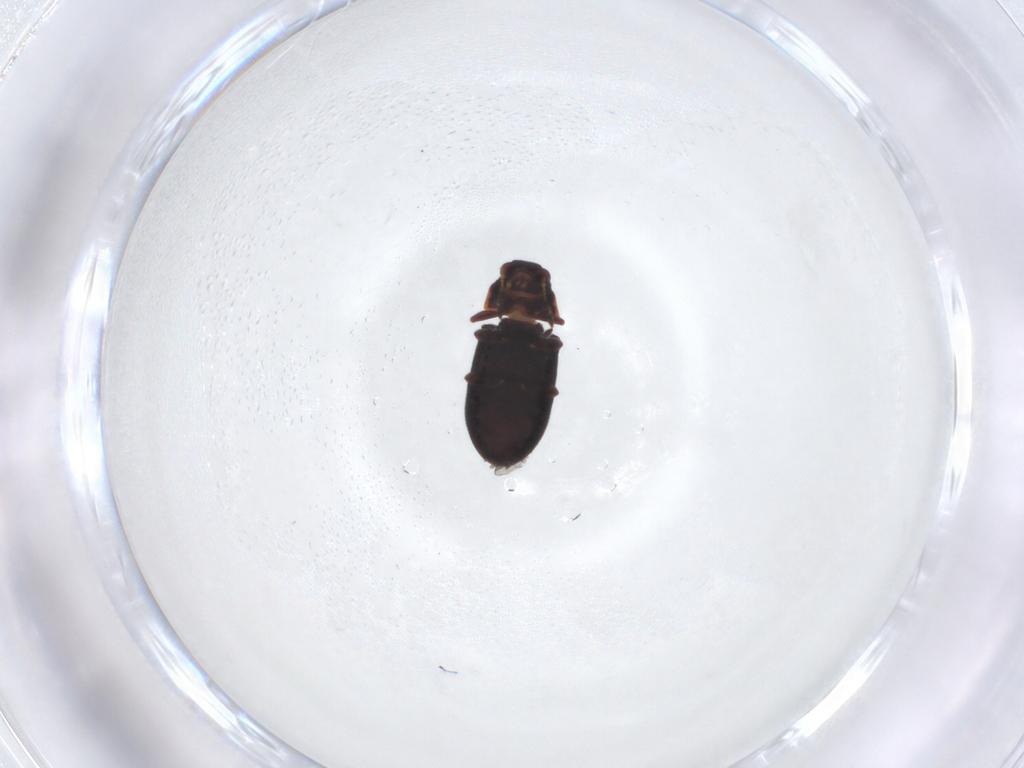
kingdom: Animalia
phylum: Arthropoda
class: Insecta
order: Coleoptera
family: Ptinidae
